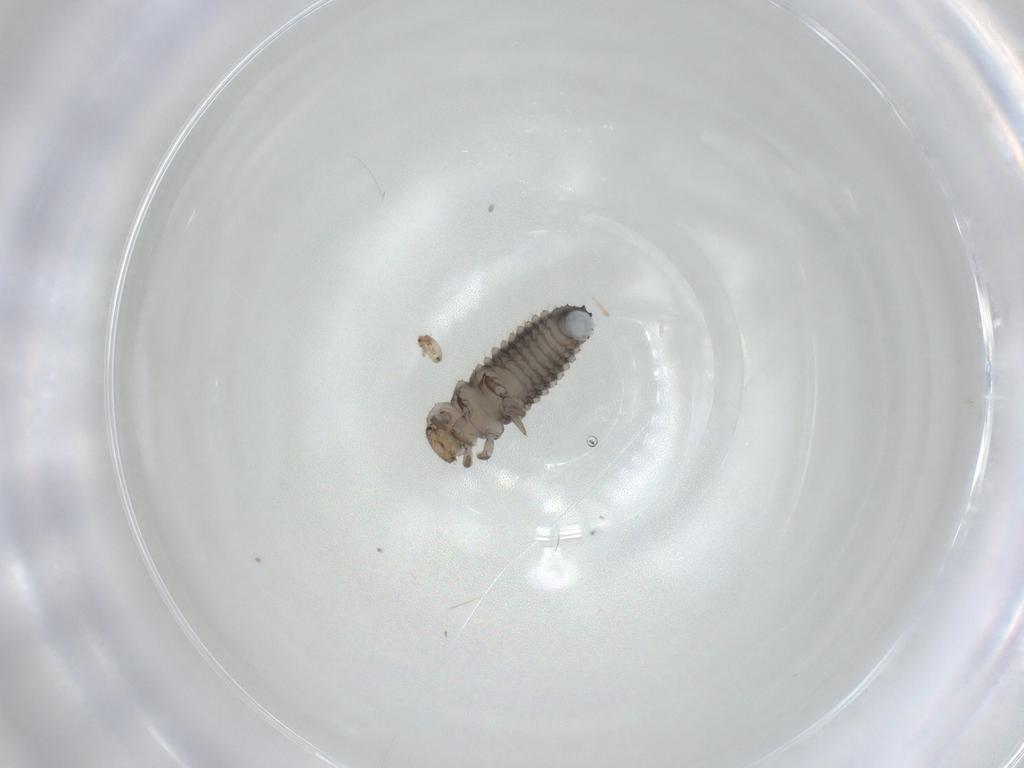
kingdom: Animalia
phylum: Arthropoda
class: Insecta
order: Coleoptera
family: Coccinellidae
